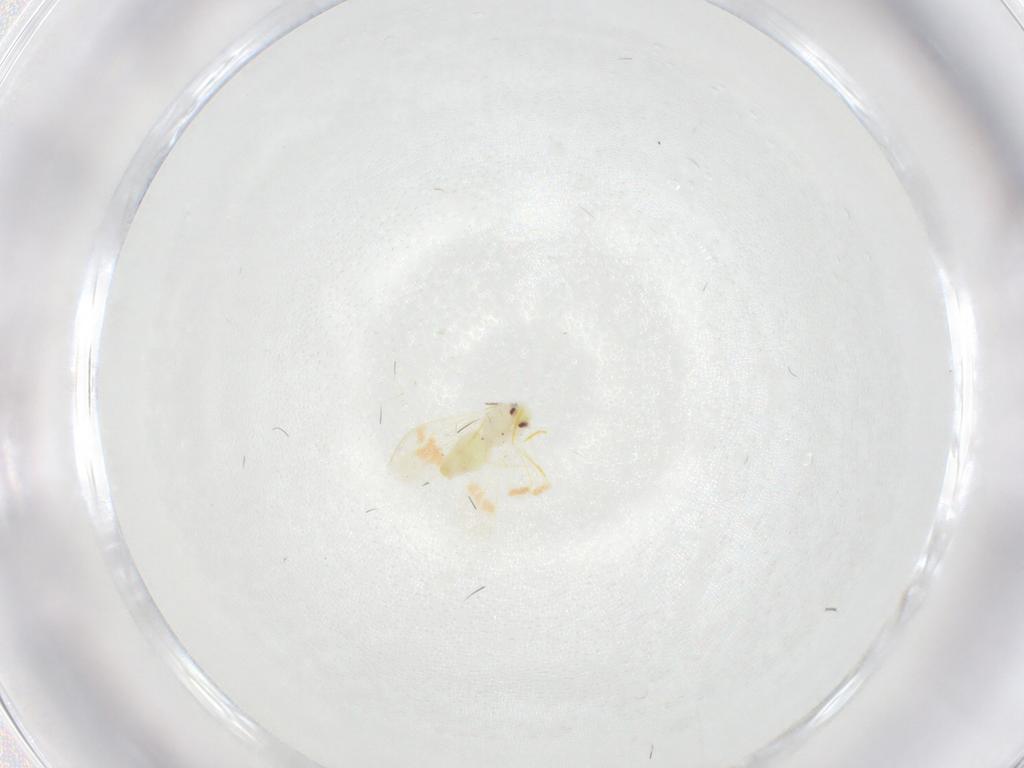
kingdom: Animalia
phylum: Arthropoda
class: Insecta
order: Hemiptera
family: Aleyrodidae
